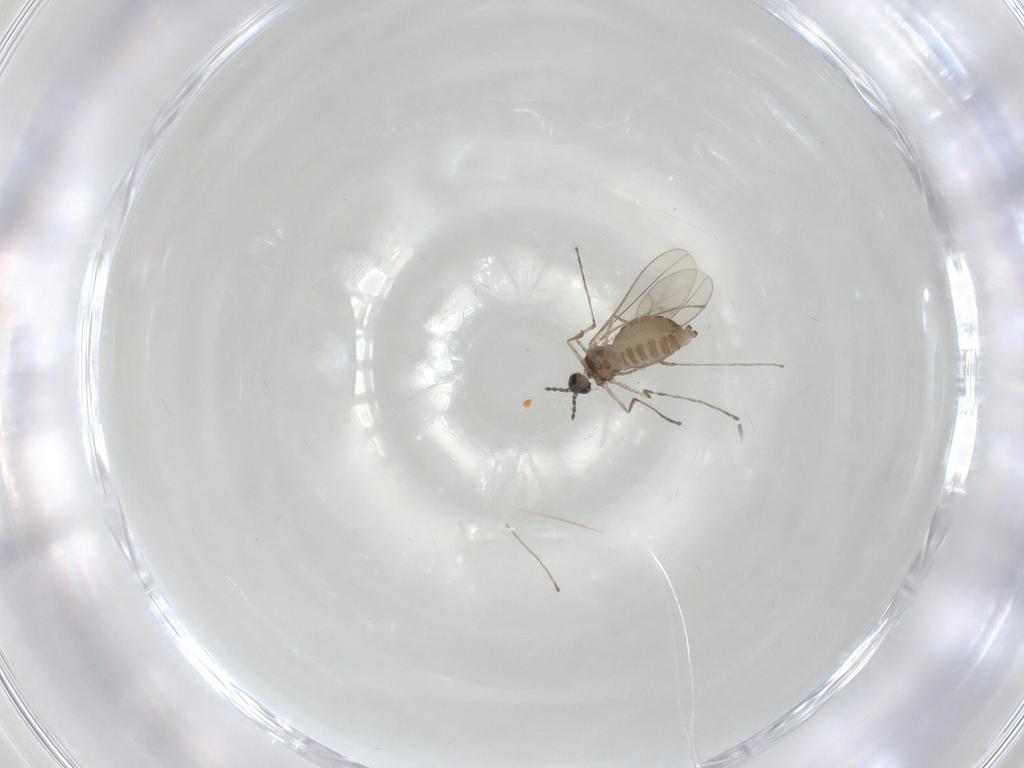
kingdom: Animalia
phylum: Arthropoda
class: Insecta
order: Diptera
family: Cecidomyiidae
